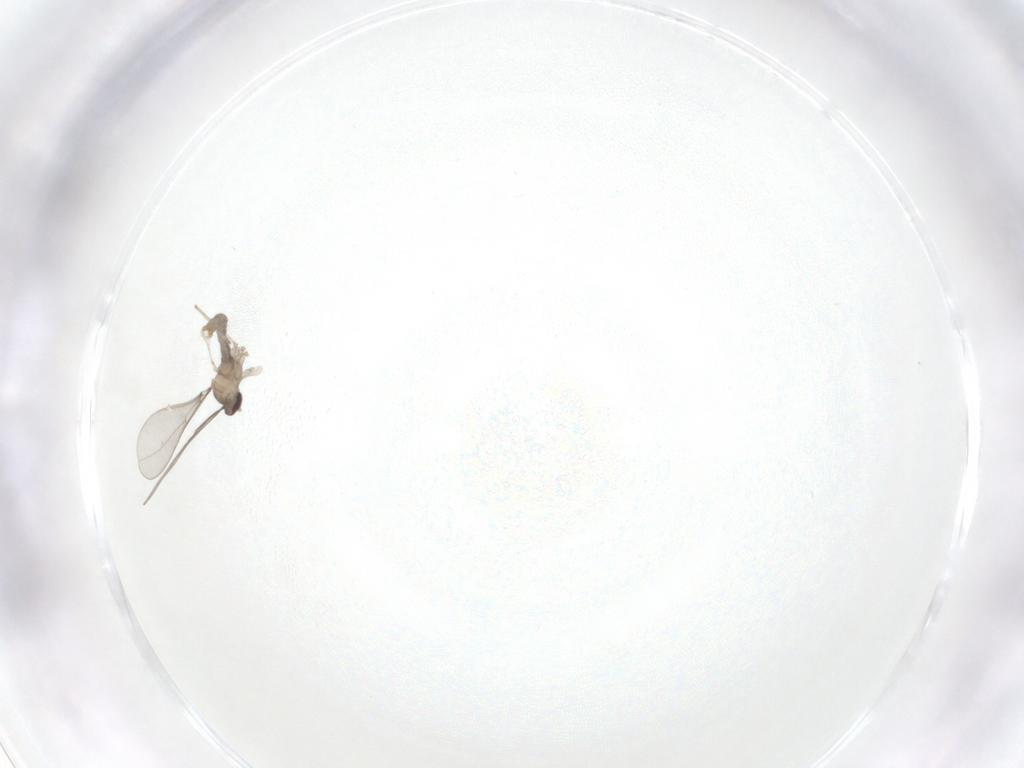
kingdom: Animalia
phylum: Arthropoda
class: Insecta
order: Diptera
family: Cecidomyiidae
